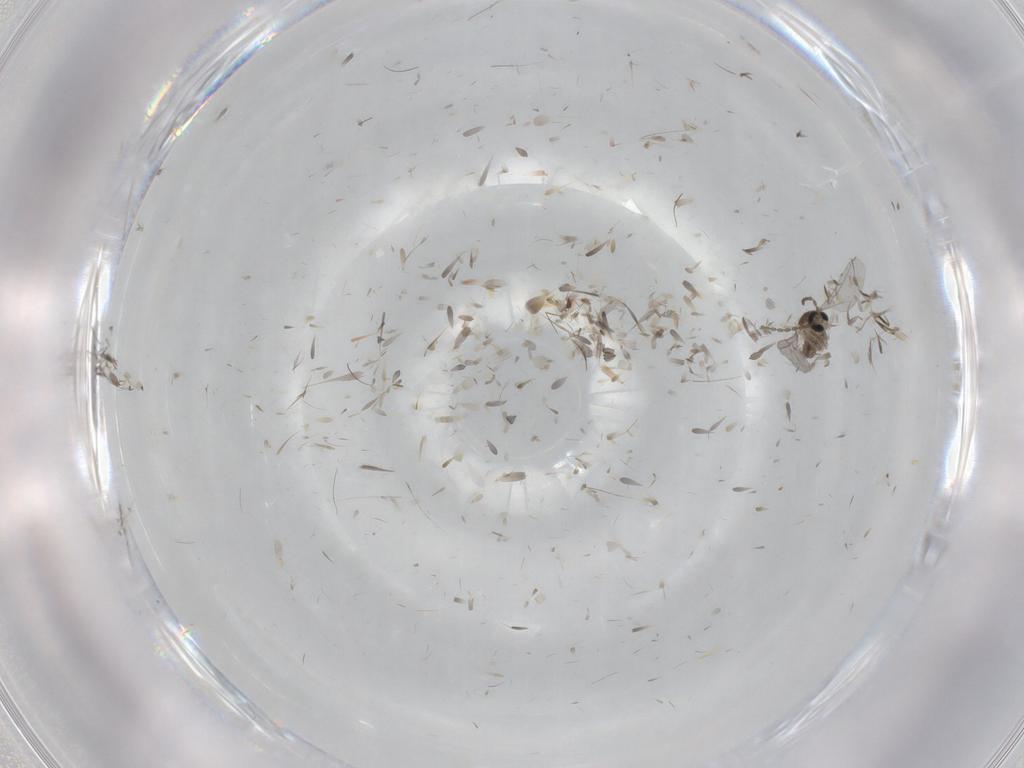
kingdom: Animalia
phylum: Arthropoda
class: Insecta
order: Diptera
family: Cecidomyiidae
